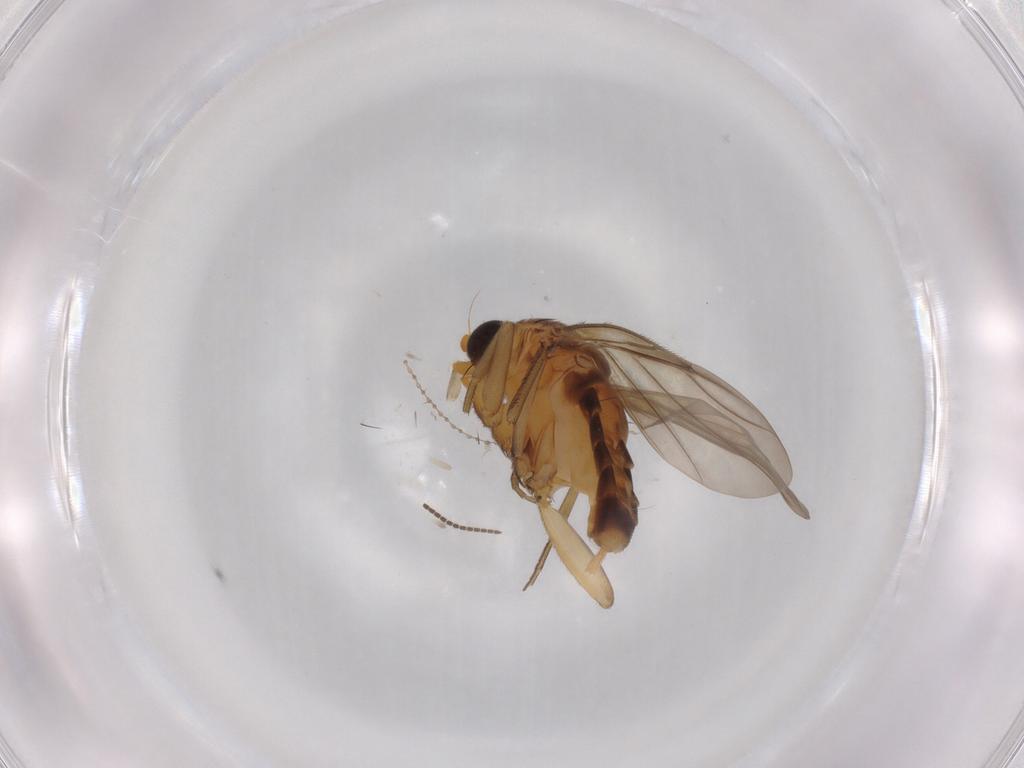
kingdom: Animalia
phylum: Arthropoda
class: Insecta
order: Diptera
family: Sciaridae
